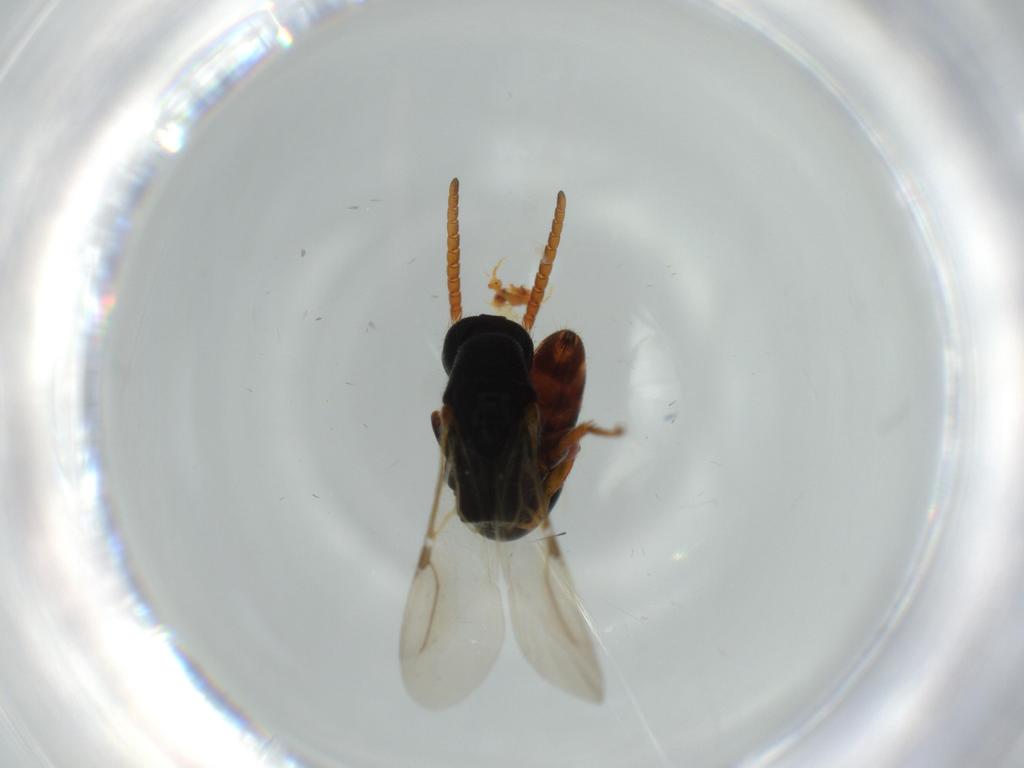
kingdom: Animalia
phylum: Arthropoda
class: Insecta
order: Hymenoptera
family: Bethylidae
